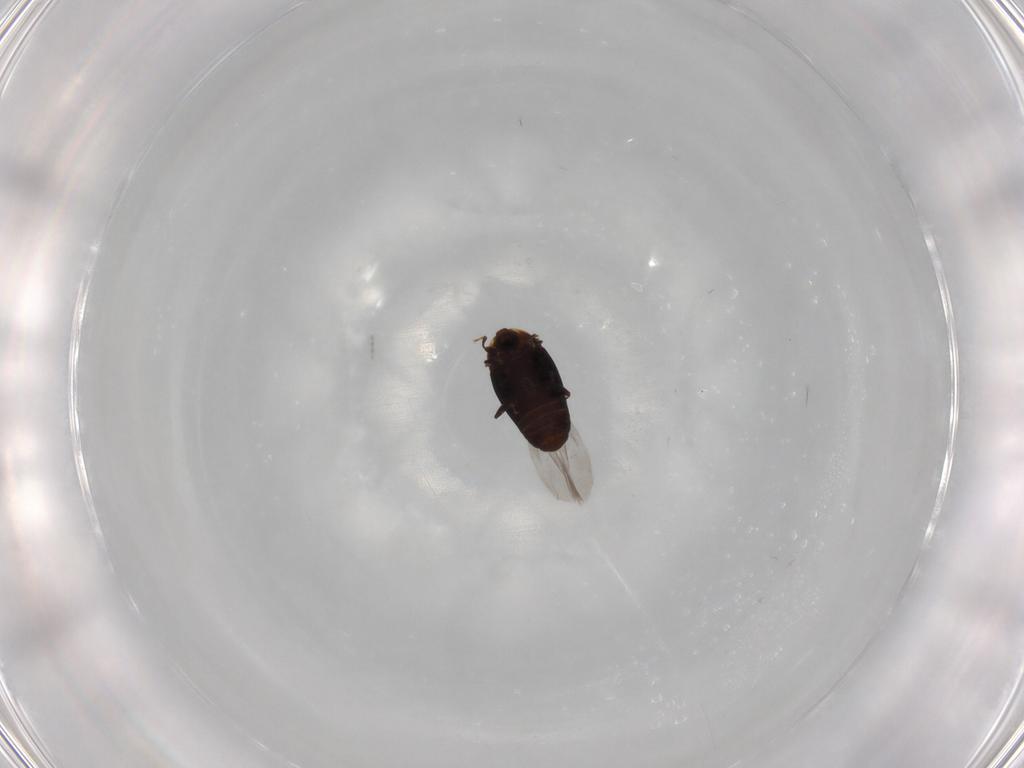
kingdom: Animalia
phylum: Arthropoda
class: Insecta
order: Coleoptera
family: Corylophidae
